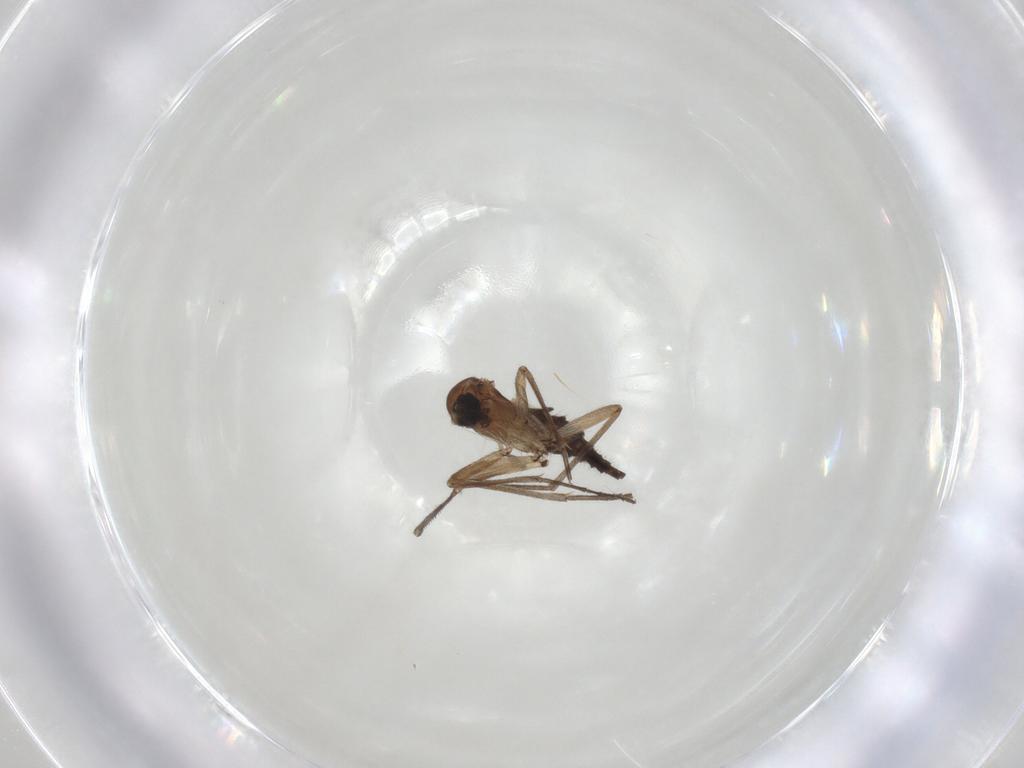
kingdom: Animalia
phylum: Arthropoda
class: Insecta
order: Diptera
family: Sciaridae
